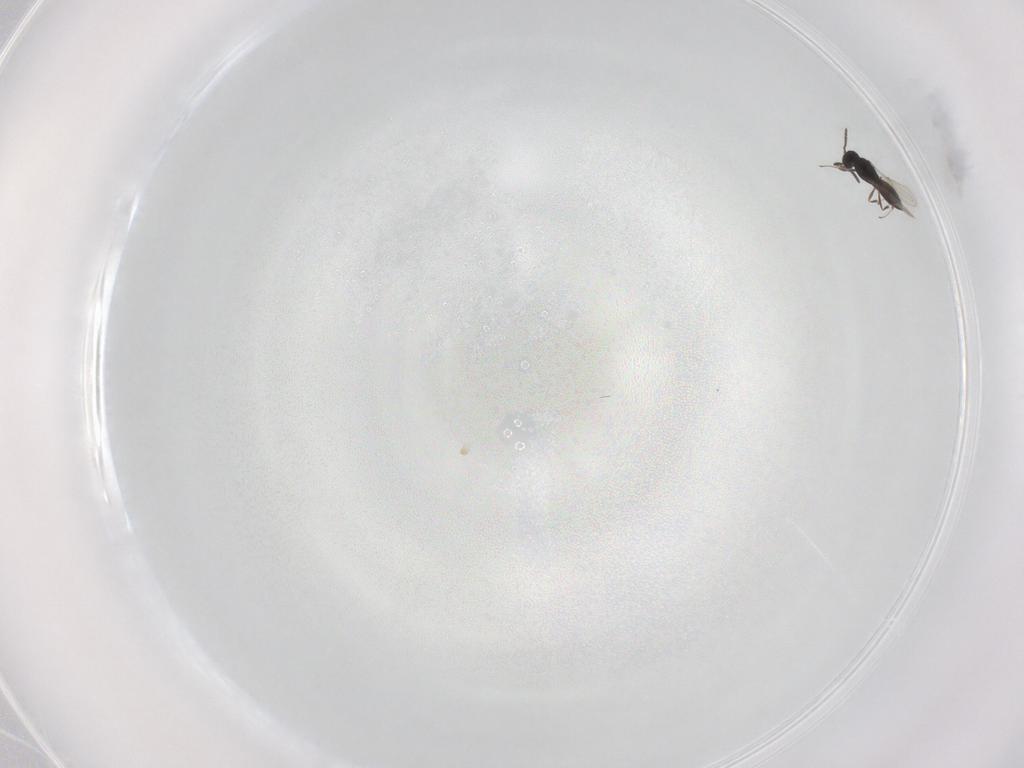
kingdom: Animalia
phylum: Arthropoda
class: Insecta
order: Hymenoptera
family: Scelionidae
